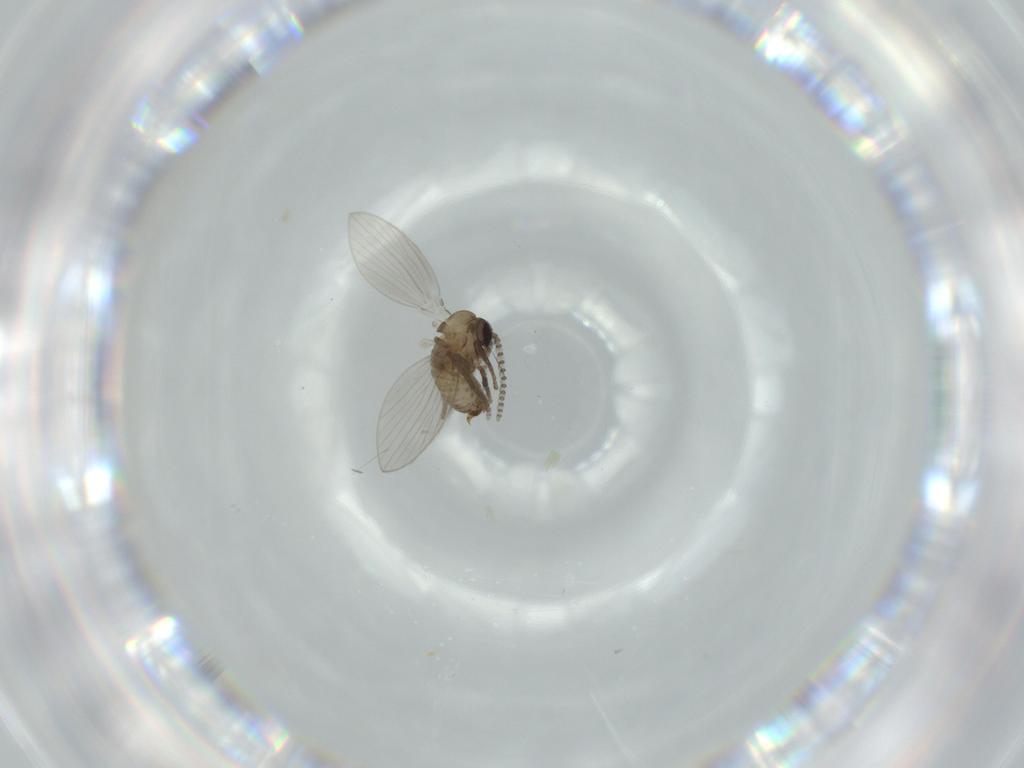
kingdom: Animalia
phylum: Arthropoda
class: Insecta
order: Diptera
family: Psychodidae
